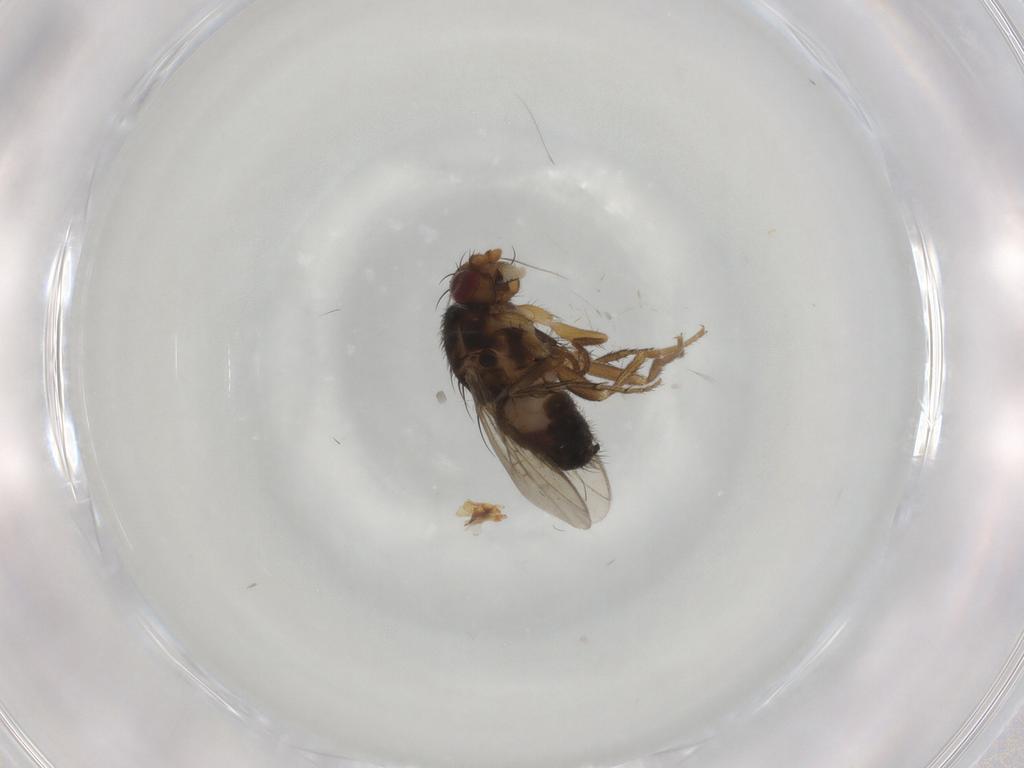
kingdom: Animalia
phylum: Arthropoda
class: Insecta
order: Diptera
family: Sphaeroceridae
